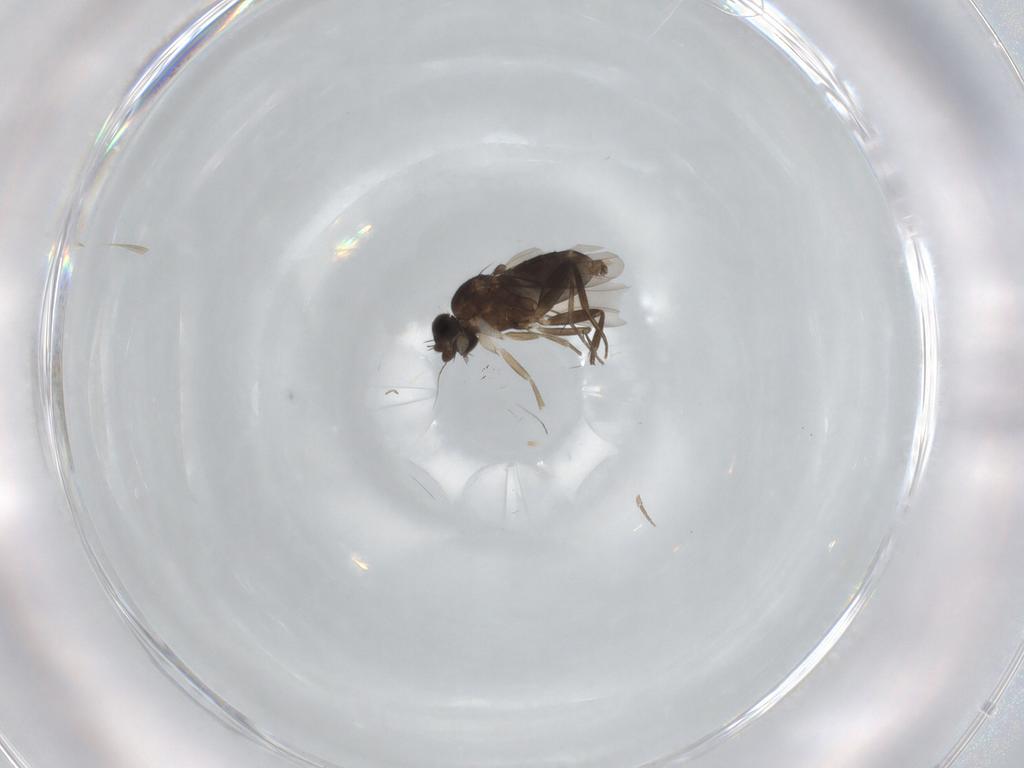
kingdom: Animalia
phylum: Arthropoda
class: Insecta
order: Diptera
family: Phoridae
